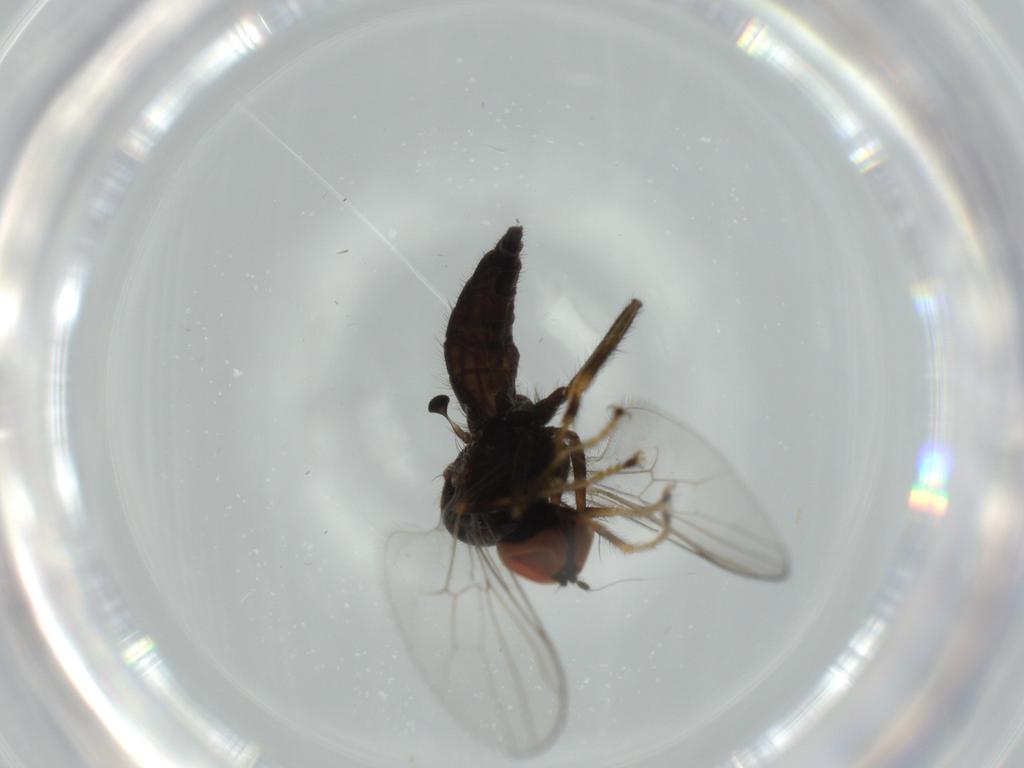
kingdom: Animalia
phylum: Arthropoda
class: Insecta
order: Diptera
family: Hybotidae
